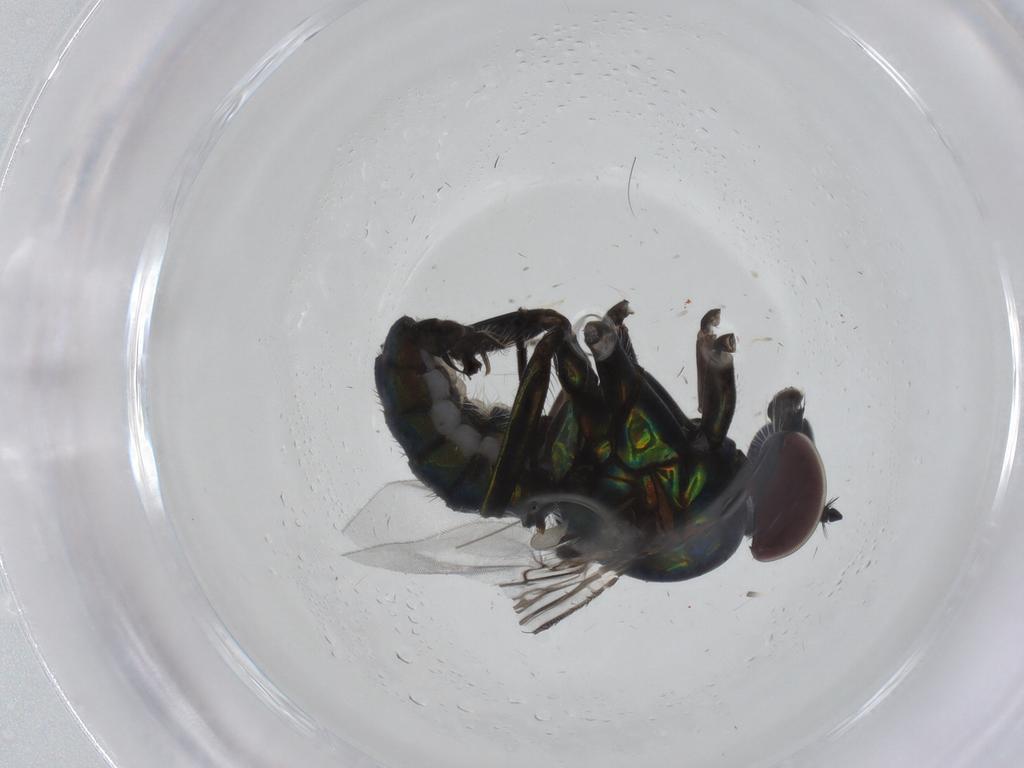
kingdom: Animalia
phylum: Arthropoda
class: Insecta
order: Diptera
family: Dolichopodidae
